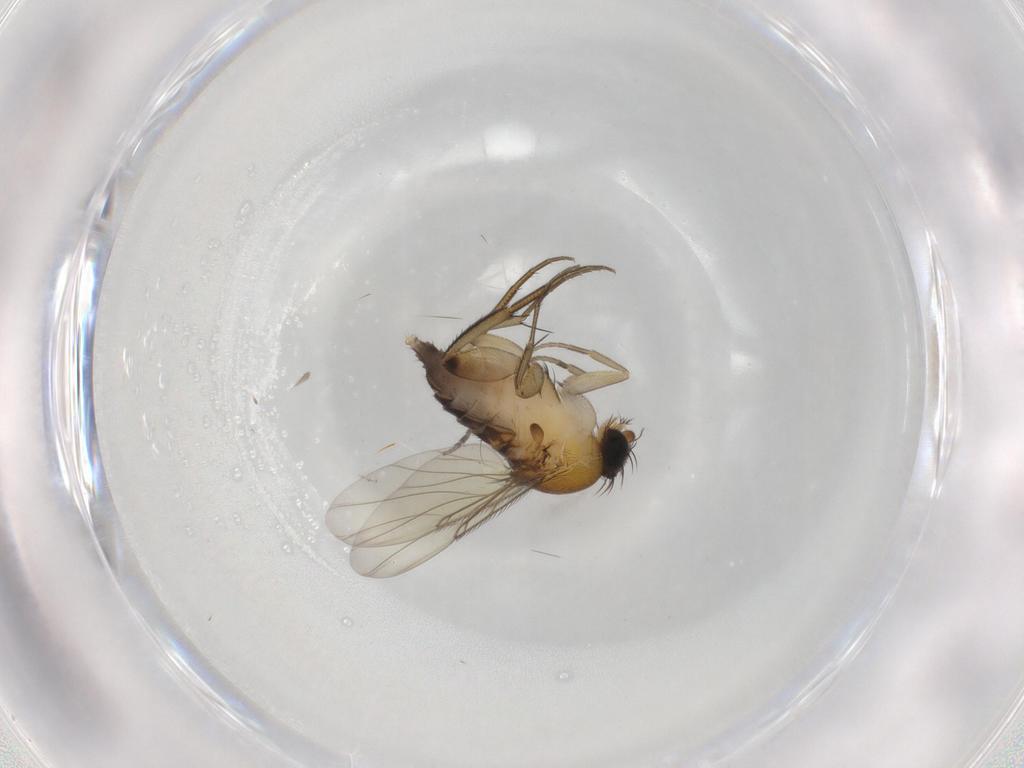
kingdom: Animalia
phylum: Arthropoda
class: Insecta
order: Diptera
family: Phoridae
